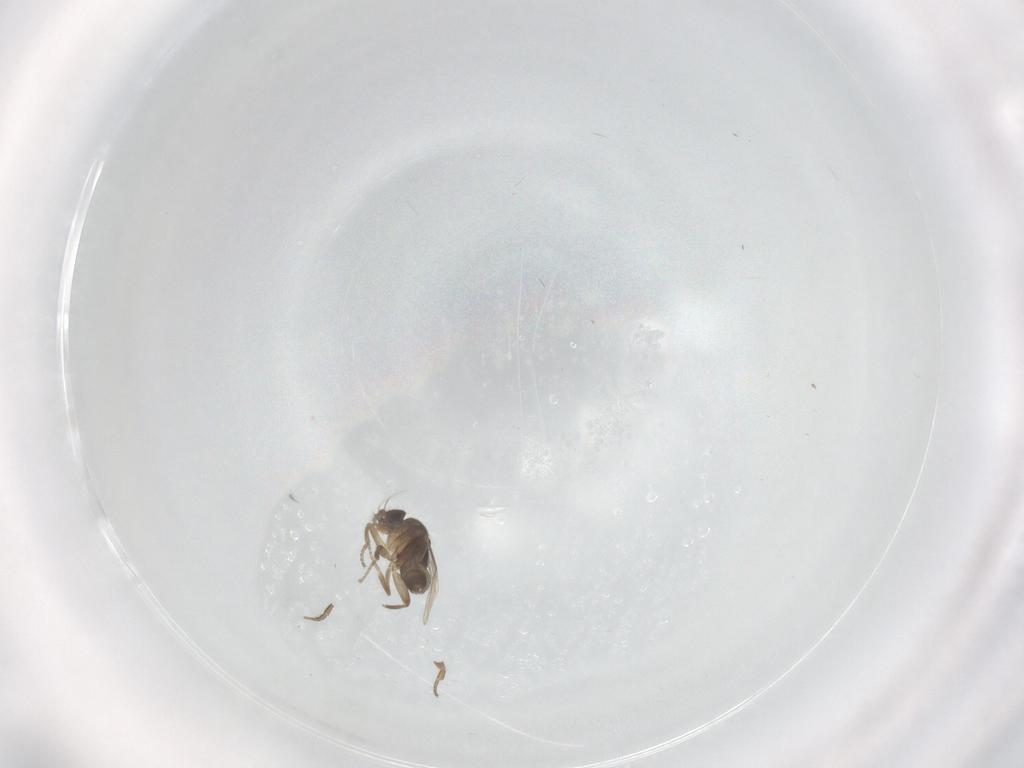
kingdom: Animalia
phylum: Arthropoda
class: Insecta
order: Diptera
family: Phoridae
